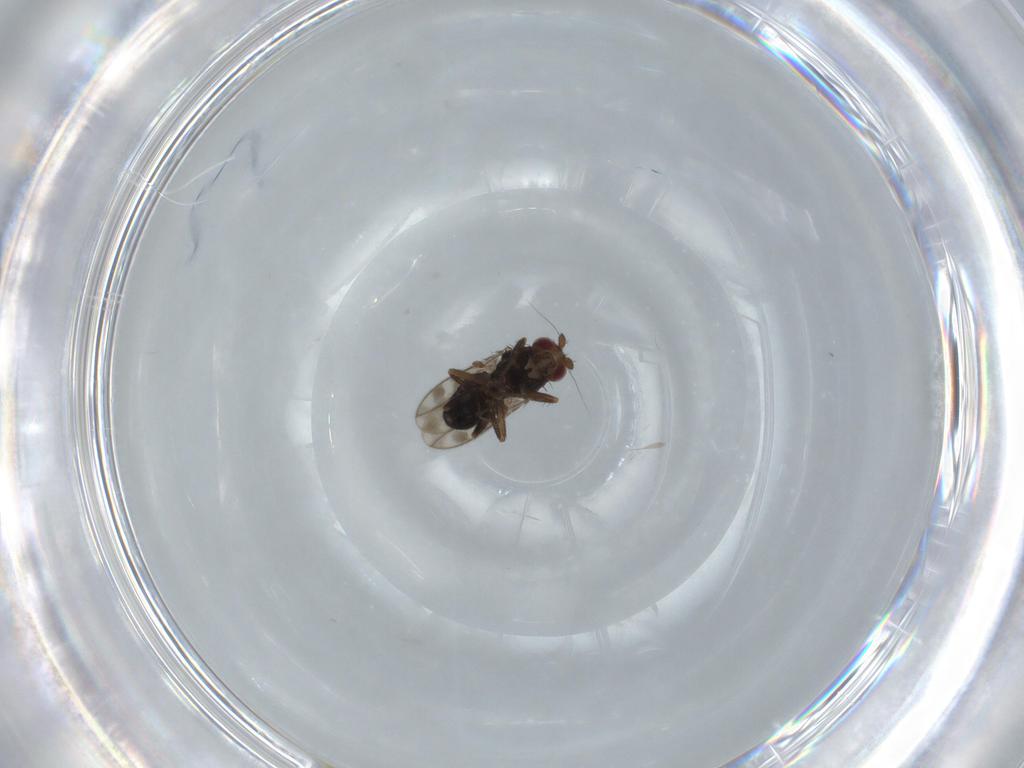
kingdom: Animalia
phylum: Arthropoda
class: Insecta
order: Diptera
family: Sphaeroceridae
